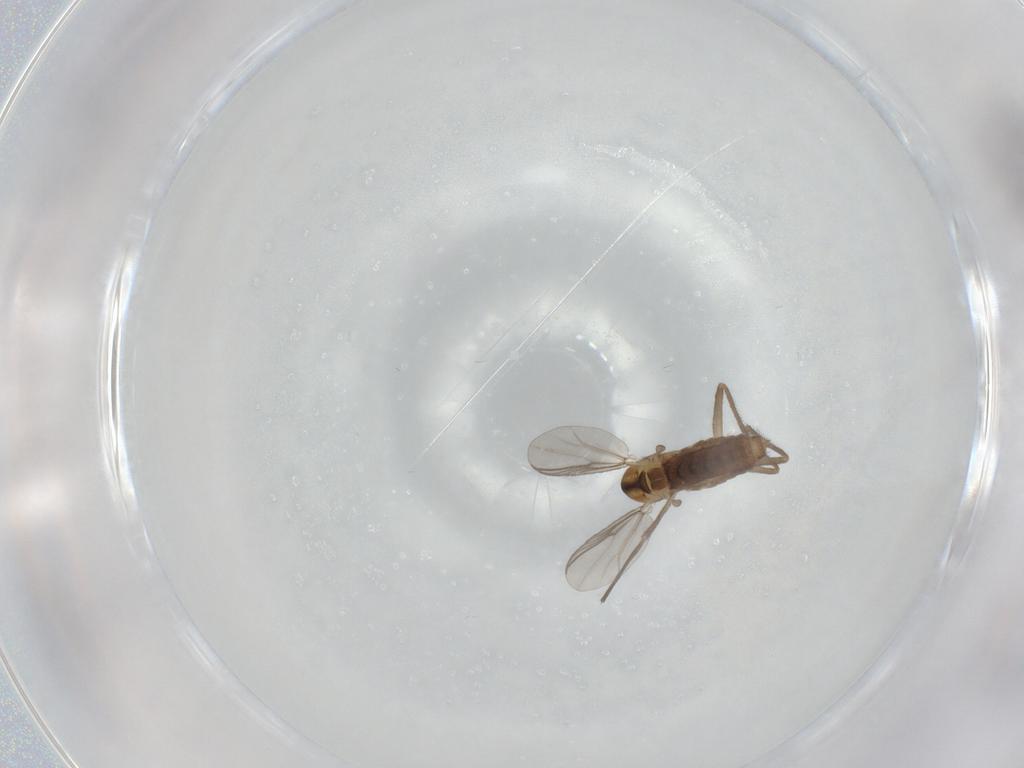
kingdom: Animalia
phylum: Arthropoda
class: Insecta
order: Diptera
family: Chironomidae
